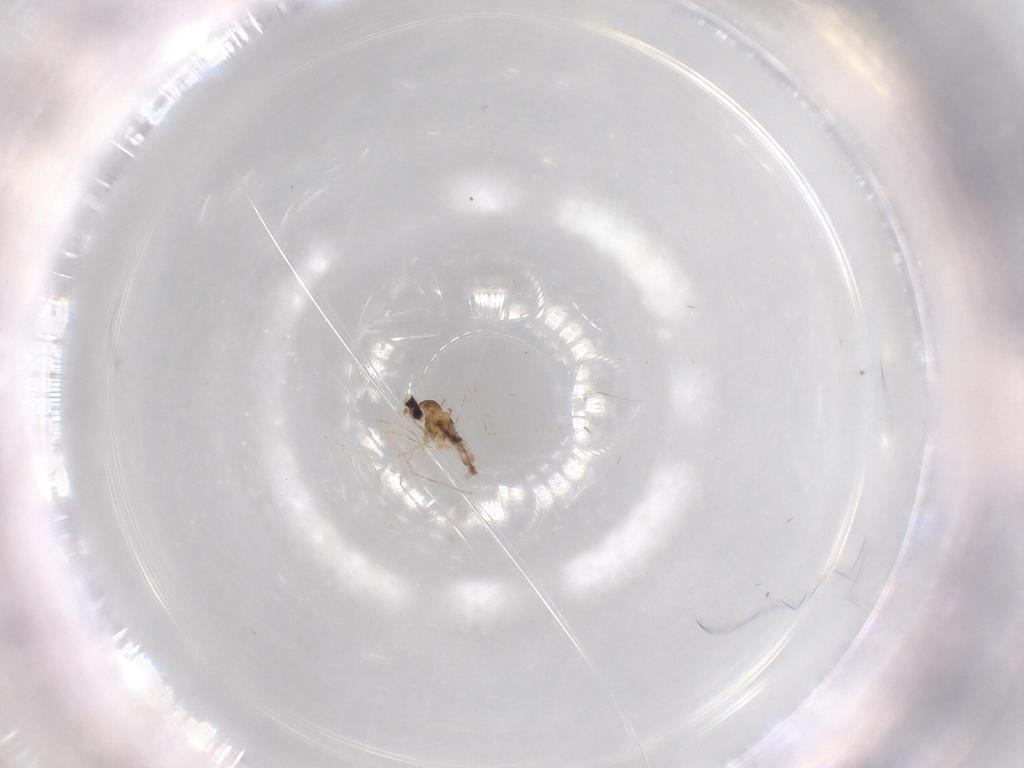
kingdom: Animalia
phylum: Arthropoda
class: Insecta
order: Diptera
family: Cecidomyiidae
